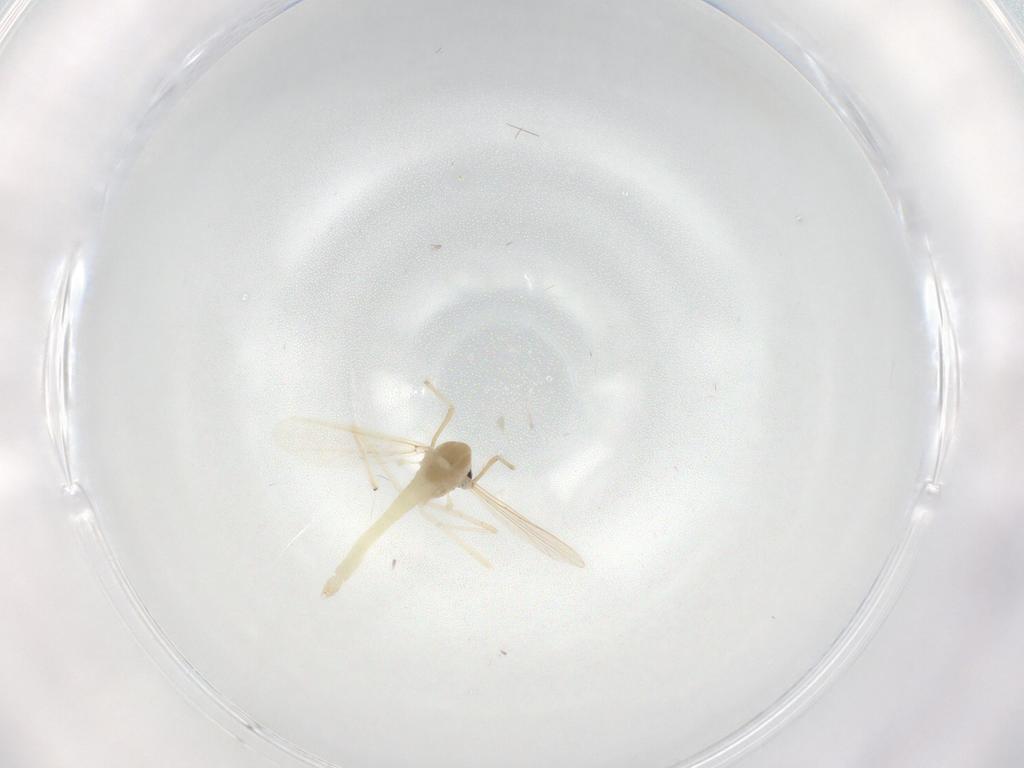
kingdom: Animalia
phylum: Arthropoda
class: Insecta
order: Diptera
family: Chironomidae
